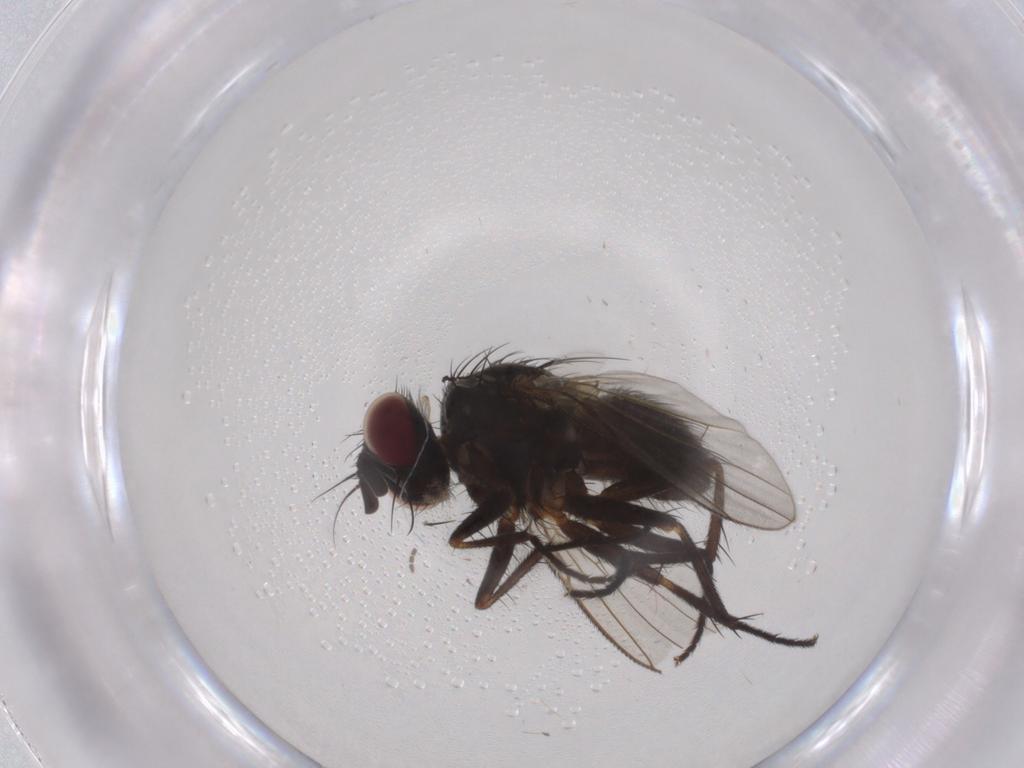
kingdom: Animalia
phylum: Arthropoda
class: Insecta
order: Diptera
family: Muscidae
